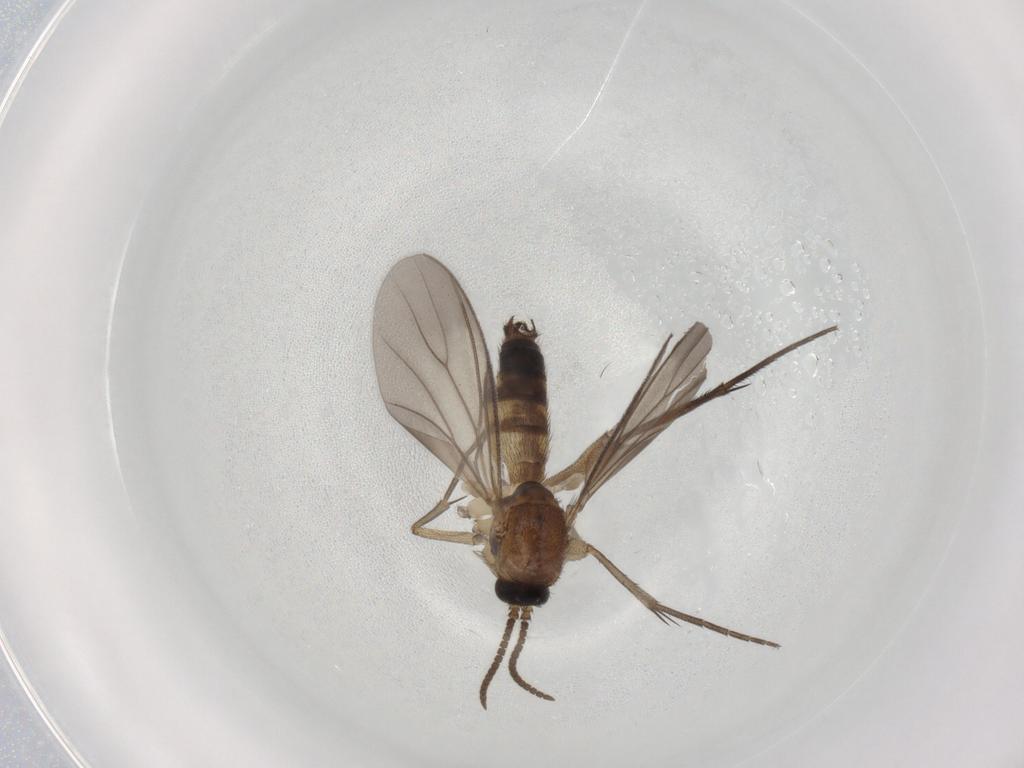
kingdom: Animalia
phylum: Arthropoda
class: Insecta
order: Diptera
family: Mycetophilidae
